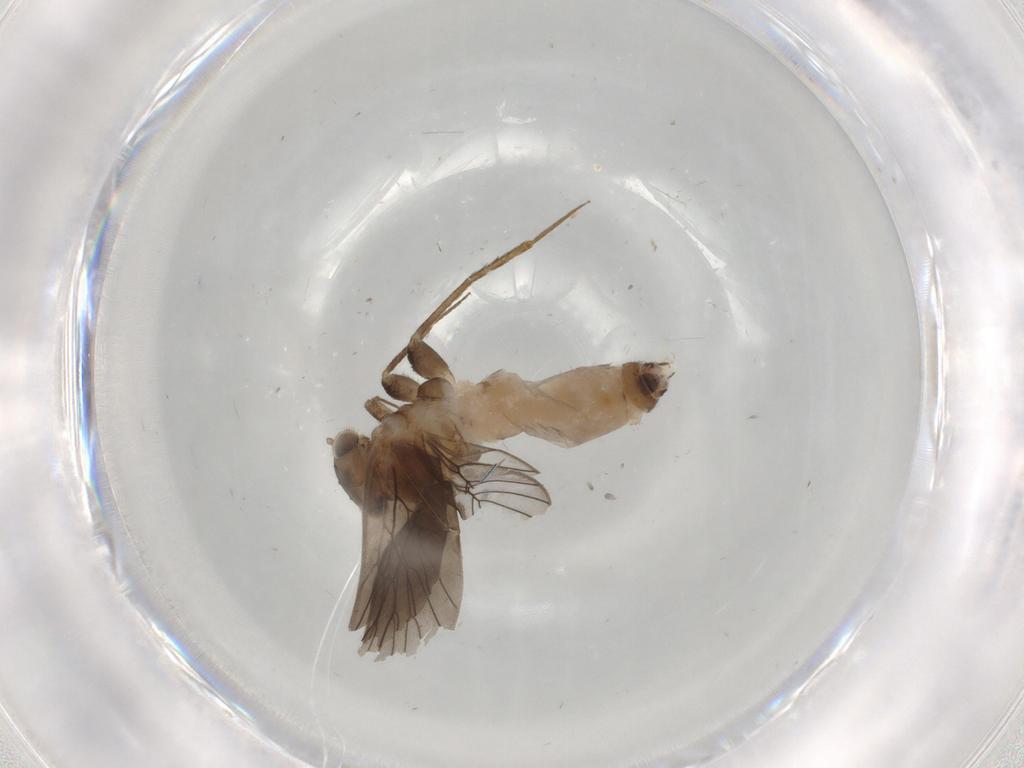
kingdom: Animalia
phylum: Arthropoda
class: Insecta
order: Psocodea
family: Lepidopsocidae
